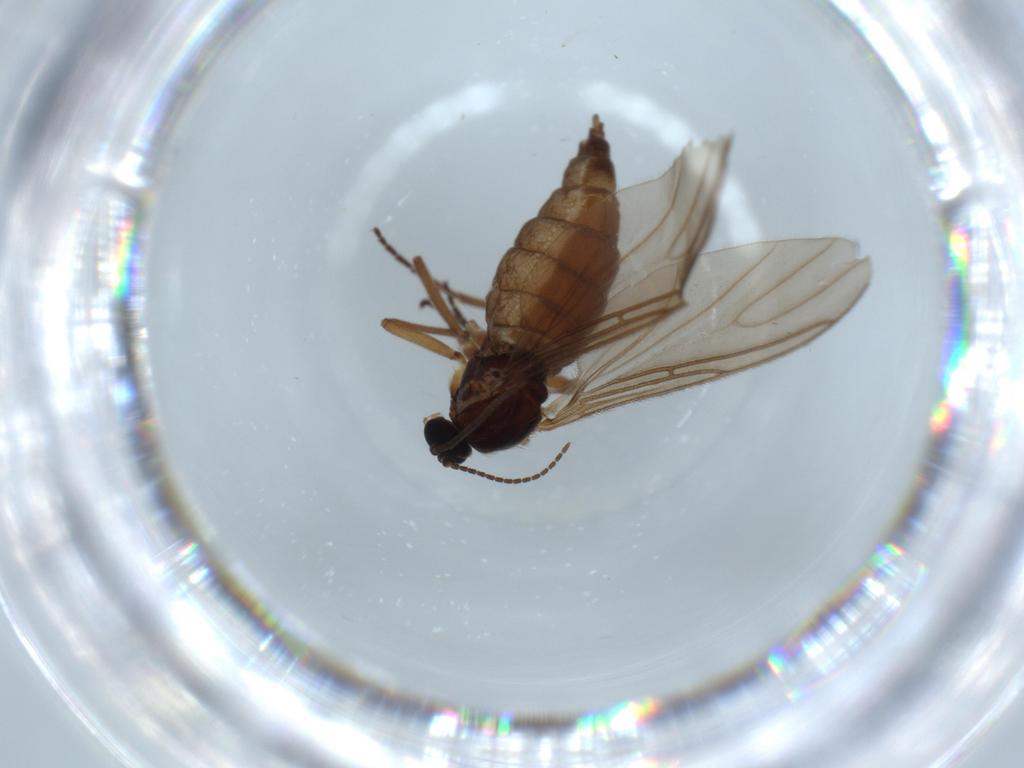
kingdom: Animalia
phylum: Arthropoda
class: Insecta
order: Diptera
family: Sciaridae
